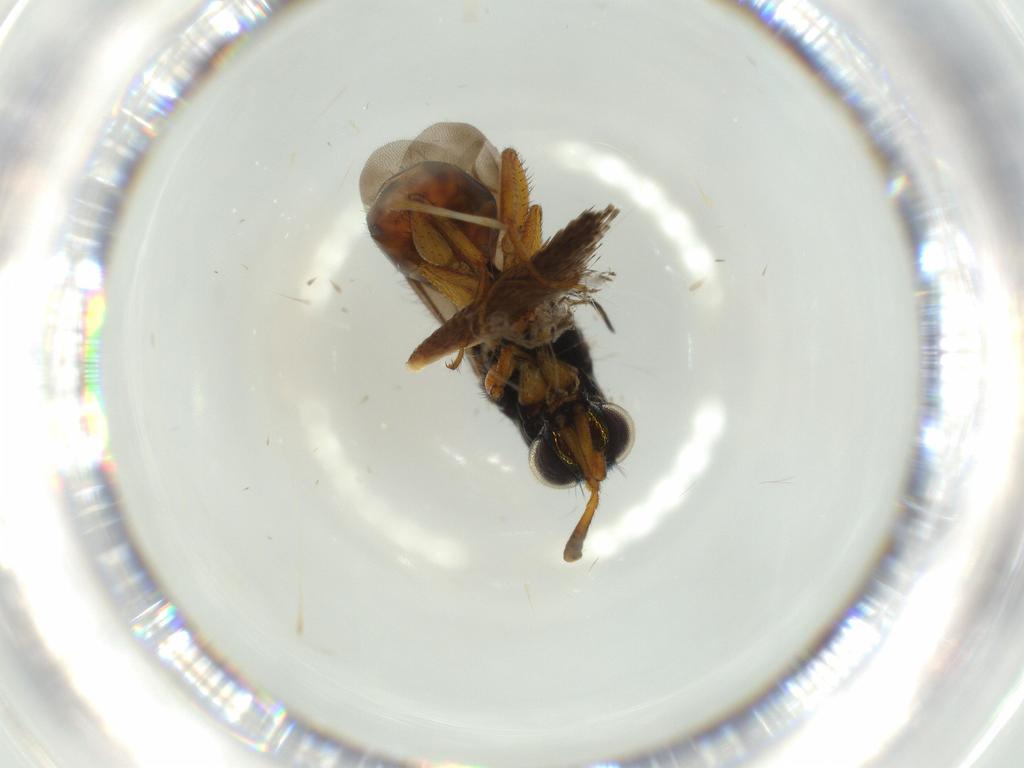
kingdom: Animalia
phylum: Arthropoda
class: Insecta
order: Hymenoptera
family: Chrysididae
